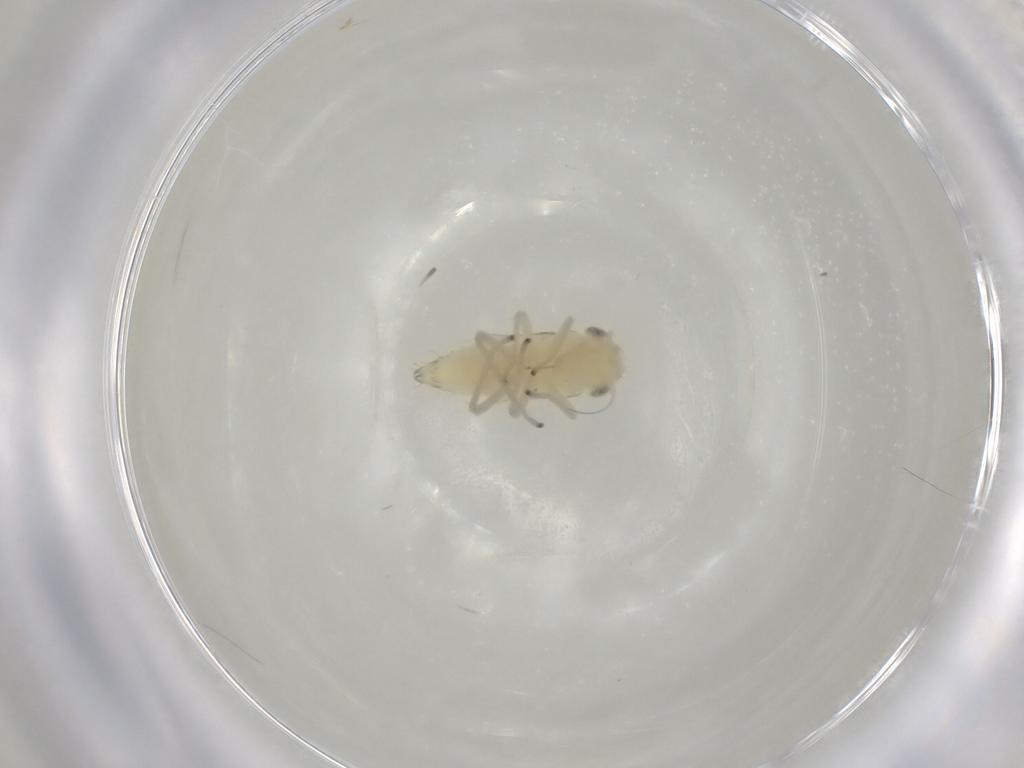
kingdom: Animalia
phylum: Arthropoda
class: Insecta
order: Hemiptera
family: Cicadellidae
